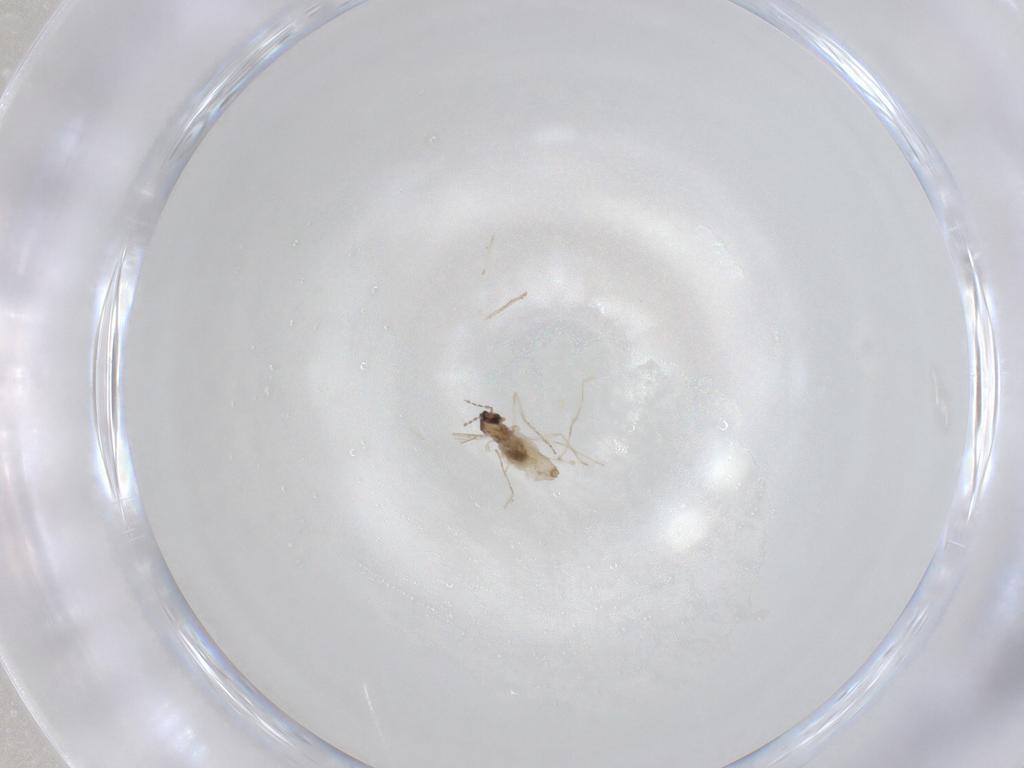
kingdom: Animalia
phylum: Arthropoda
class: Insecta
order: Diptera
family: Cecidomyiidae
